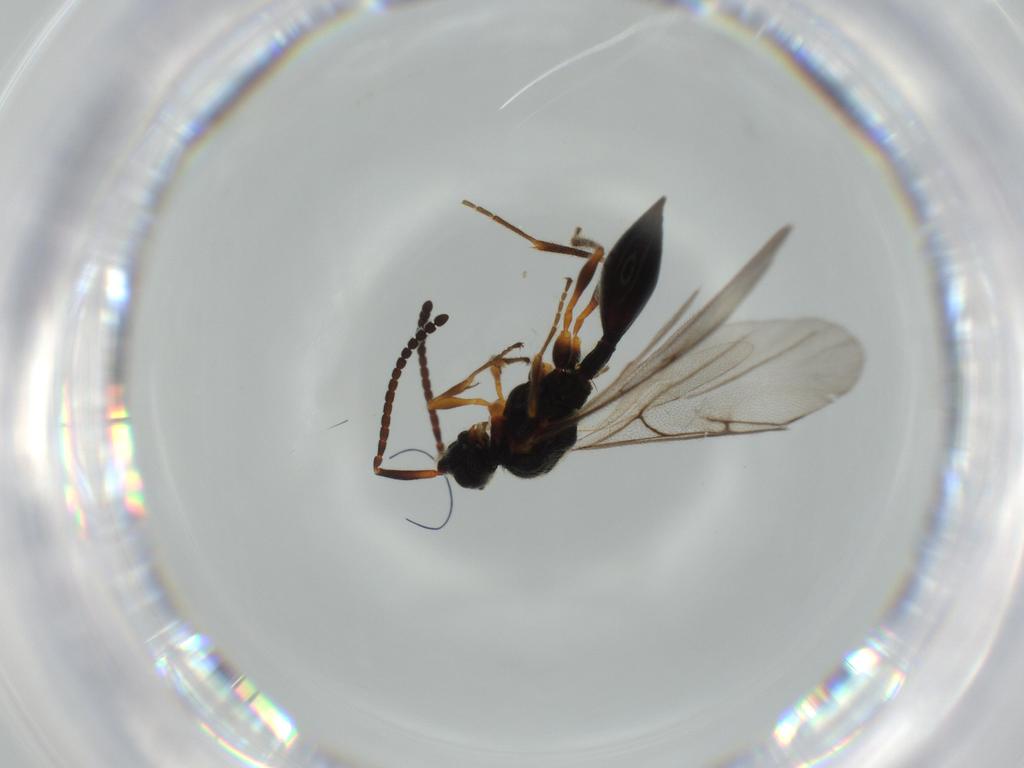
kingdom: Animalia
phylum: Arthropoda
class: Insecta
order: Hymenoptera
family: Diapriidae
